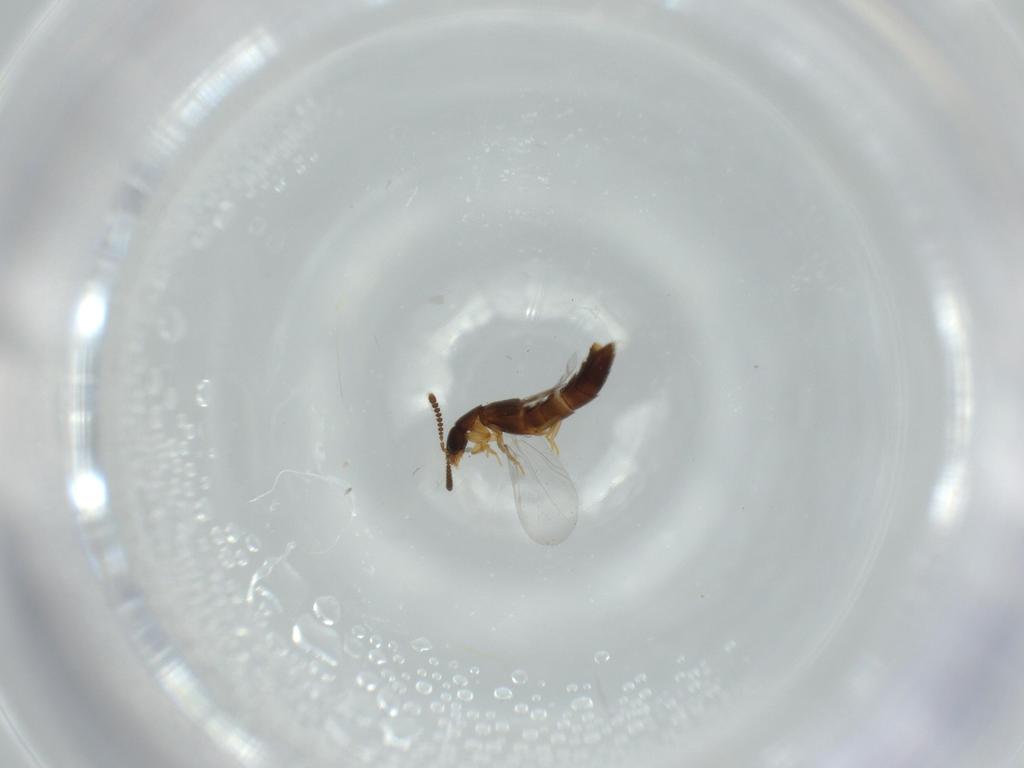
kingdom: Animalia
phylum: Arthropoda
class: Insecta
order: Coleoptera
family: Staphylinidae
